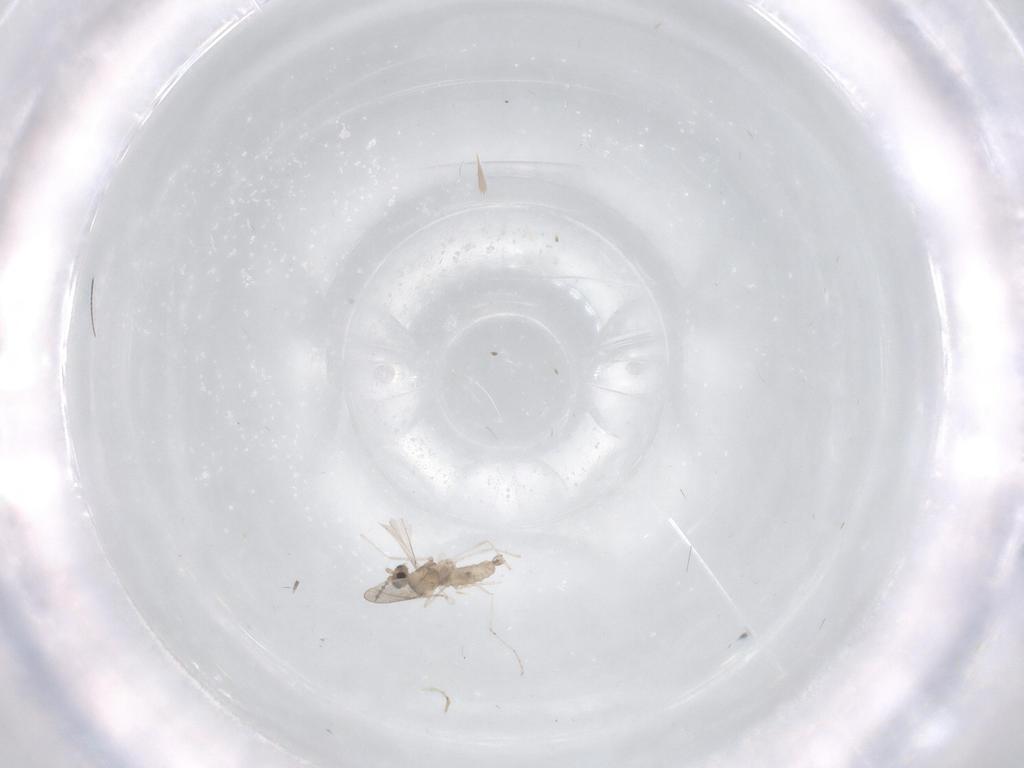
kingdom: Animalia
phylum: Arthropoda
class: Insecta
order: Diptera
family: Cecidomyiidae
